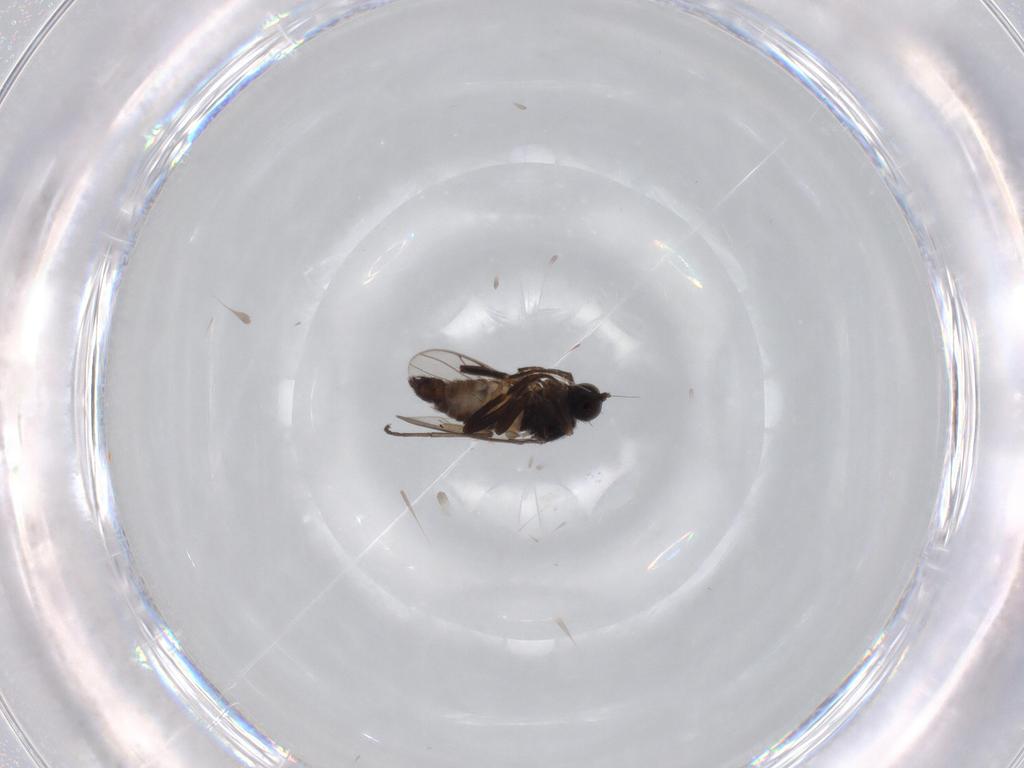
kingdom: Animalia
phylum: Arthropoda
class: Insecta
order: Diptera
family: Hybotidae
